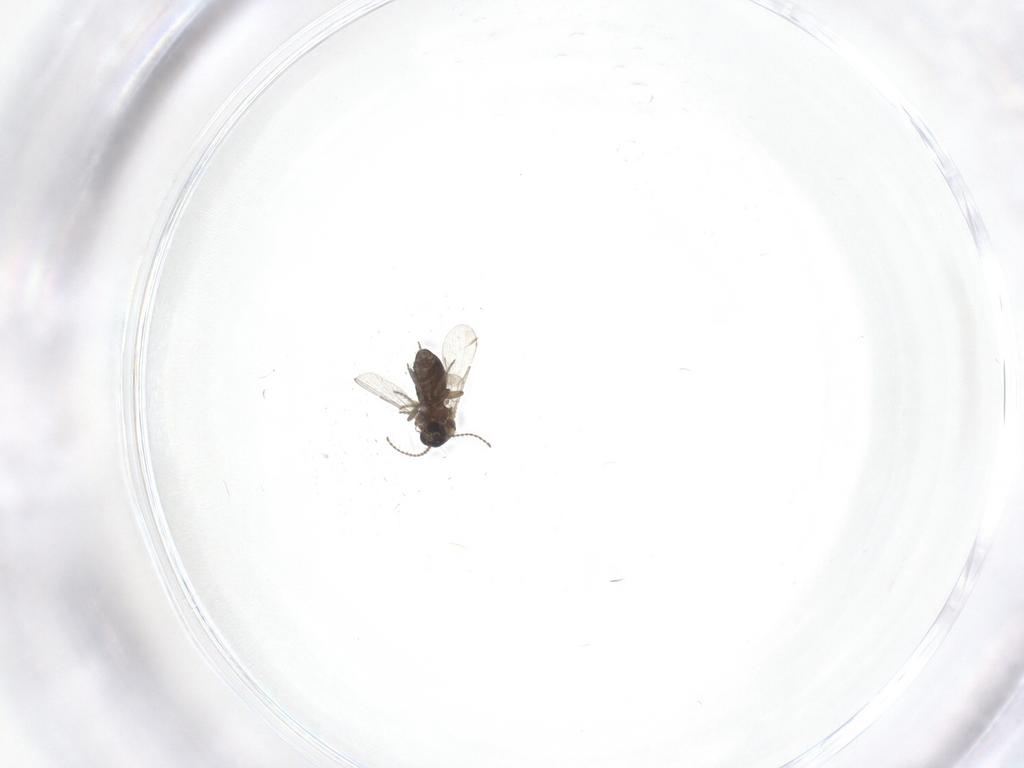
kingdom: Animalia
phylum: Arthropoda
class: Insecta
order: Diptera
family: Ceratopogonidae
